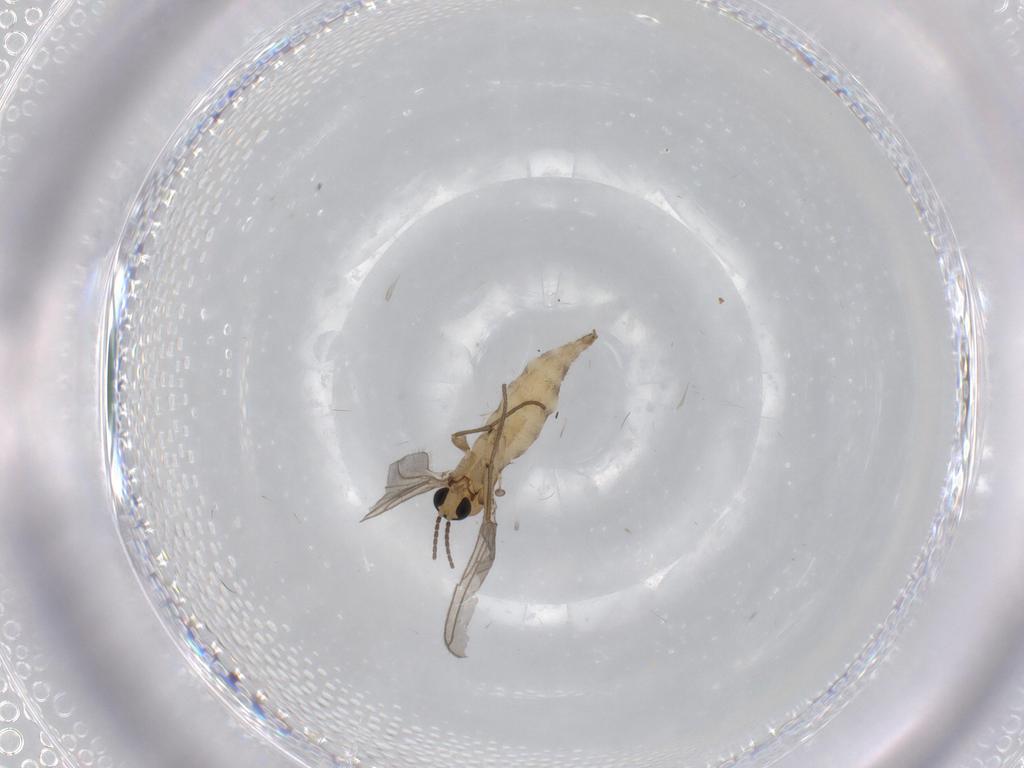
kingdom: Animalia
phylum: Arthropoda
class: Insecta
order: Diptera
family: Sciaridae
